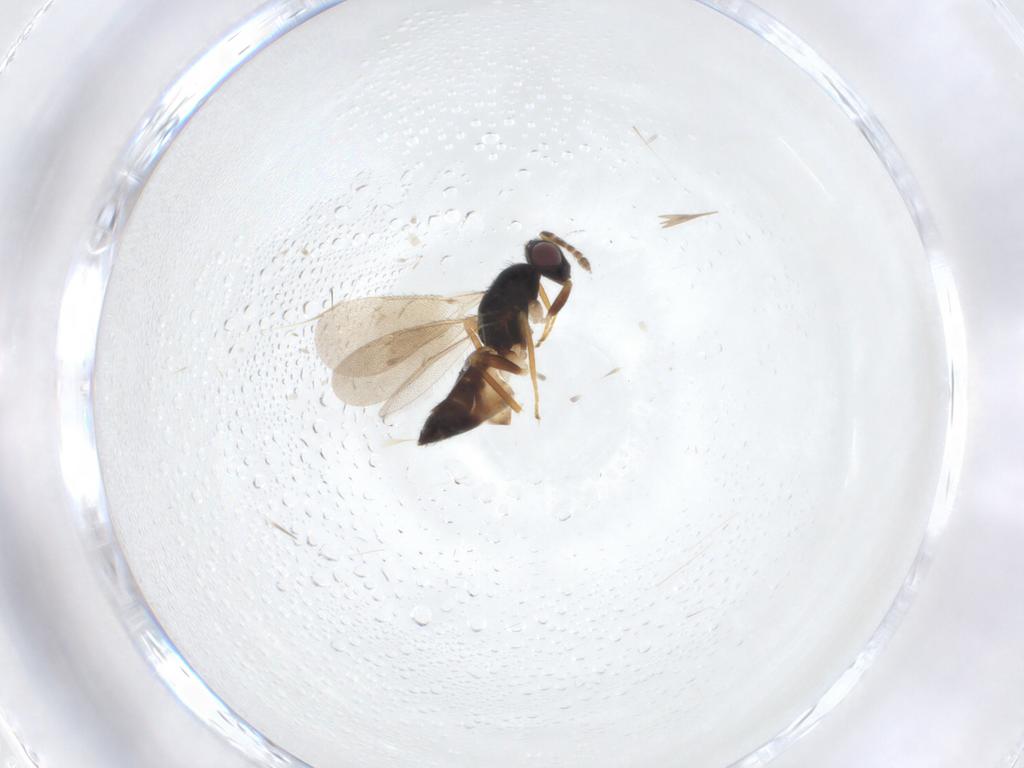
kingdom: Animalia
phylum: Arthropoda
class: Insecta
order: Hymenoptera
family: Eulophidae
